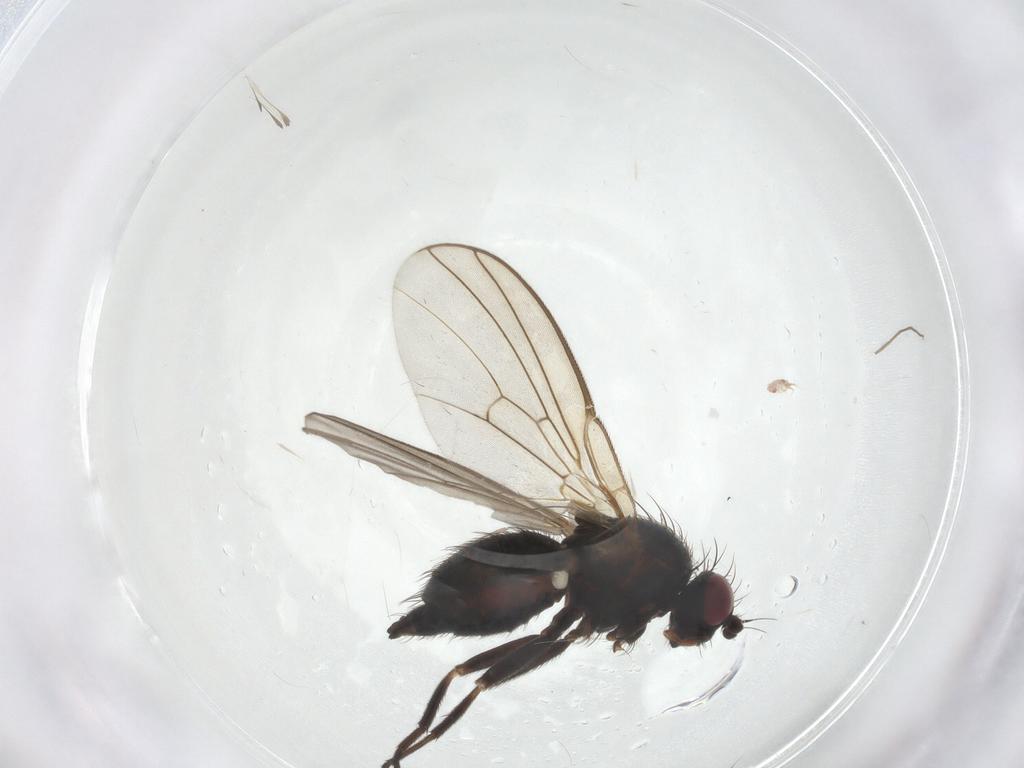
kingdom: Animalia
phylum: Arthropoda
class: Insecta
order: Diptera
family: Agromyzidae
